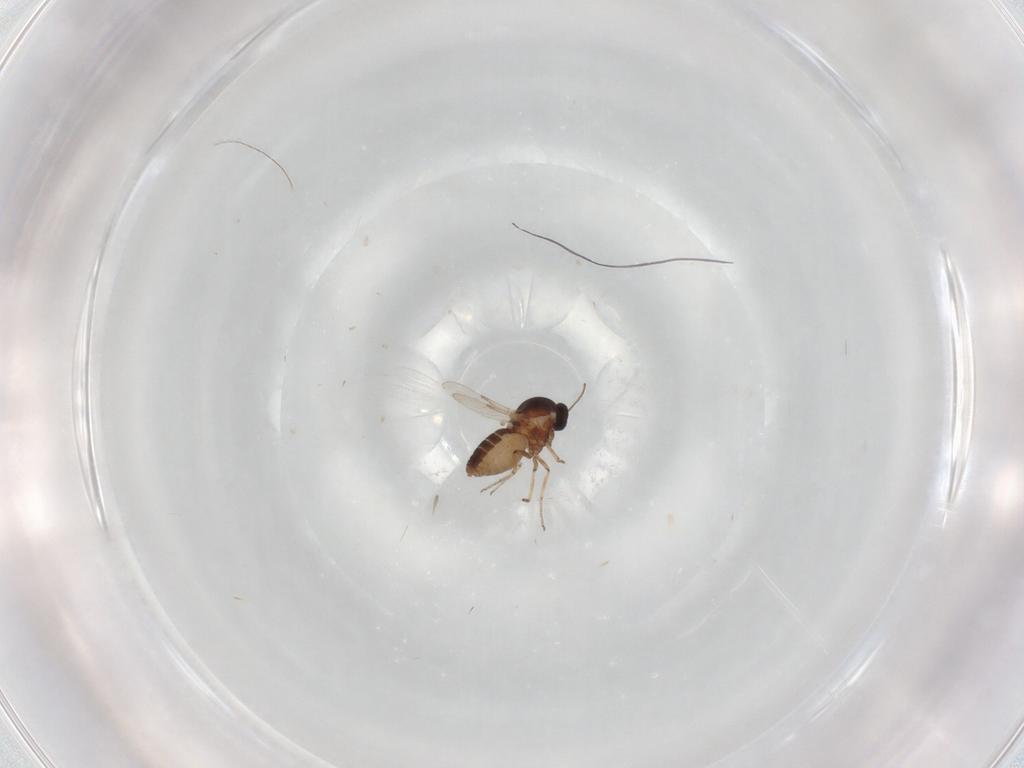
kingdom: Animalia
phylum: Arthropoda
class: Insecta
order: Diptera
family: Ceratopogonidae
